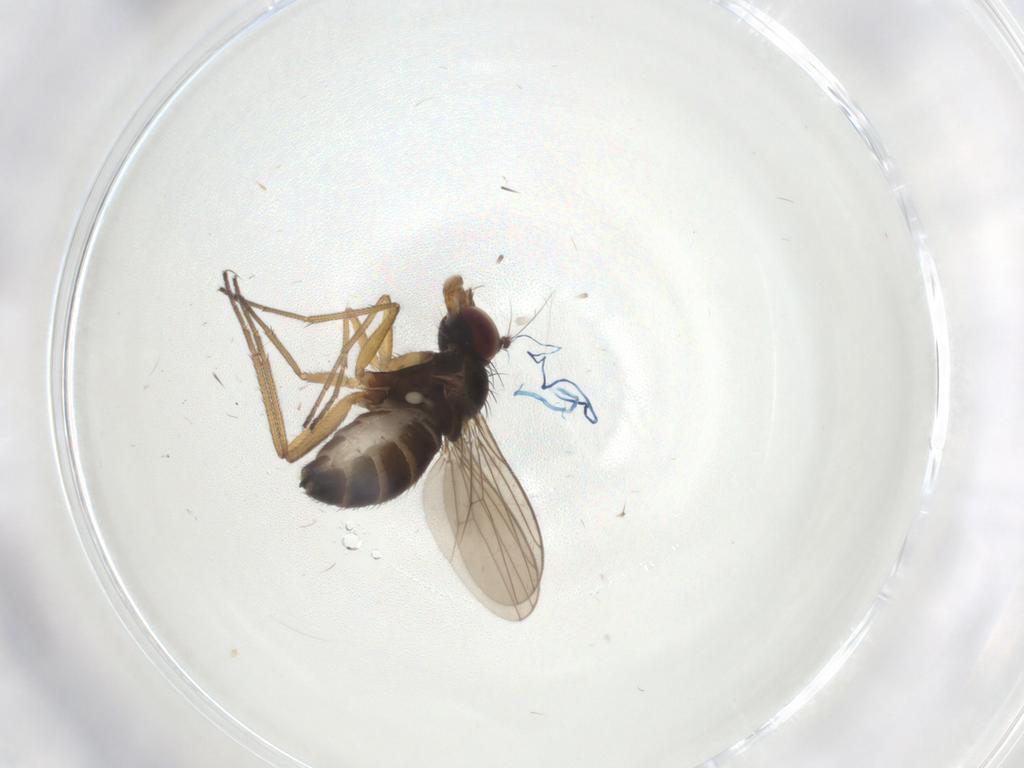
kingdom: Animalia
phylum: Arthropoda
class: Insecta
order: Diptera
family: Dolichopodidae
